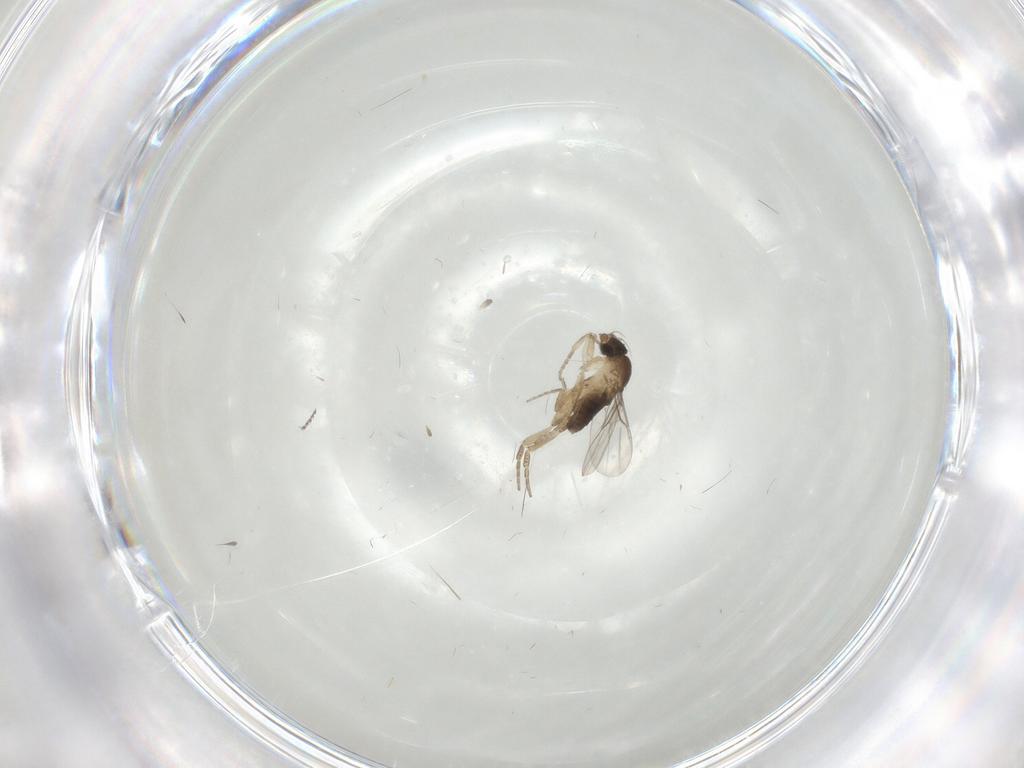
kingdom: Animalia
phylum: Arthropoda
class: Insecta
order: Diptera
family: Cecidomyiidae
